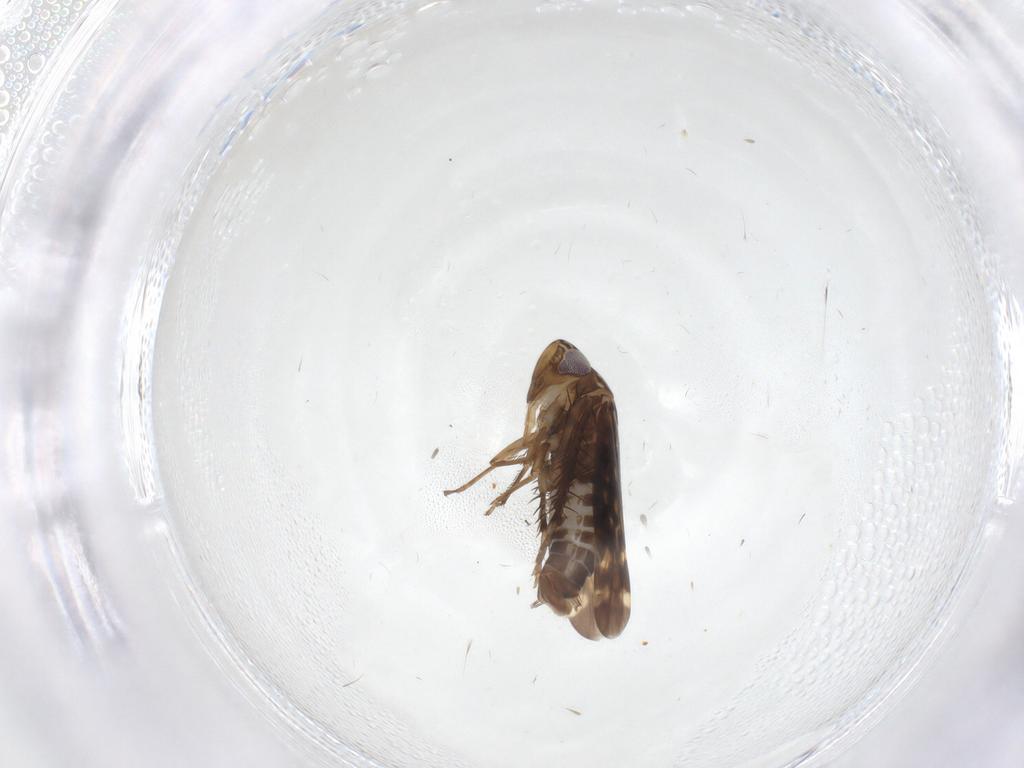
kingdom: Animalia
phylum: Arthropoda
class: Insecta
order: Hemiptera
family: Cicadellidae
